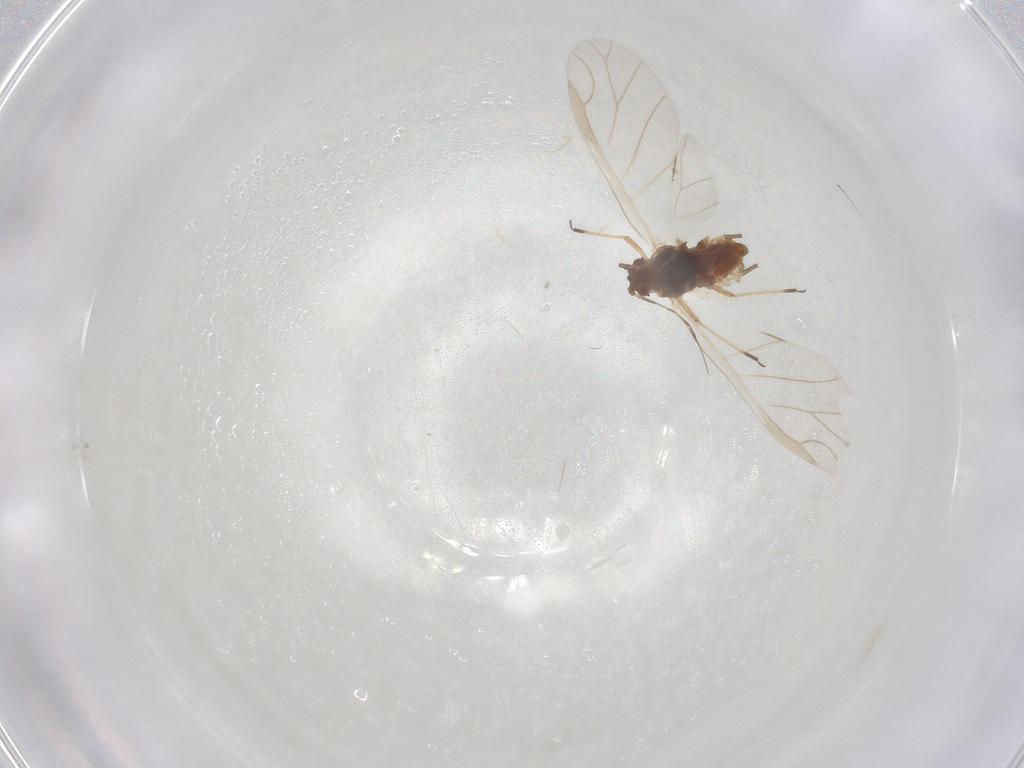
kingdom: Animalia
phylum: Arthropoda
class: Insecta
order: Hemiptera
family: Aphididae
